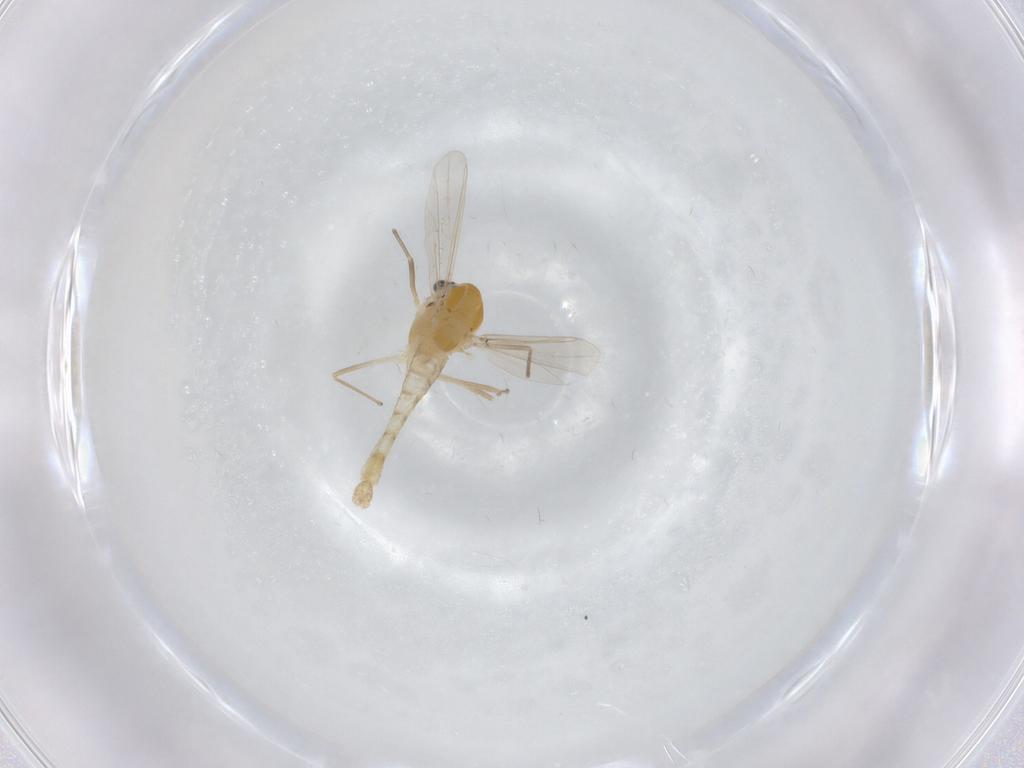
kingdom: Animalia
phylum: Arthropoda
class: Insecta
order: Diptera
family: Chironomidae
